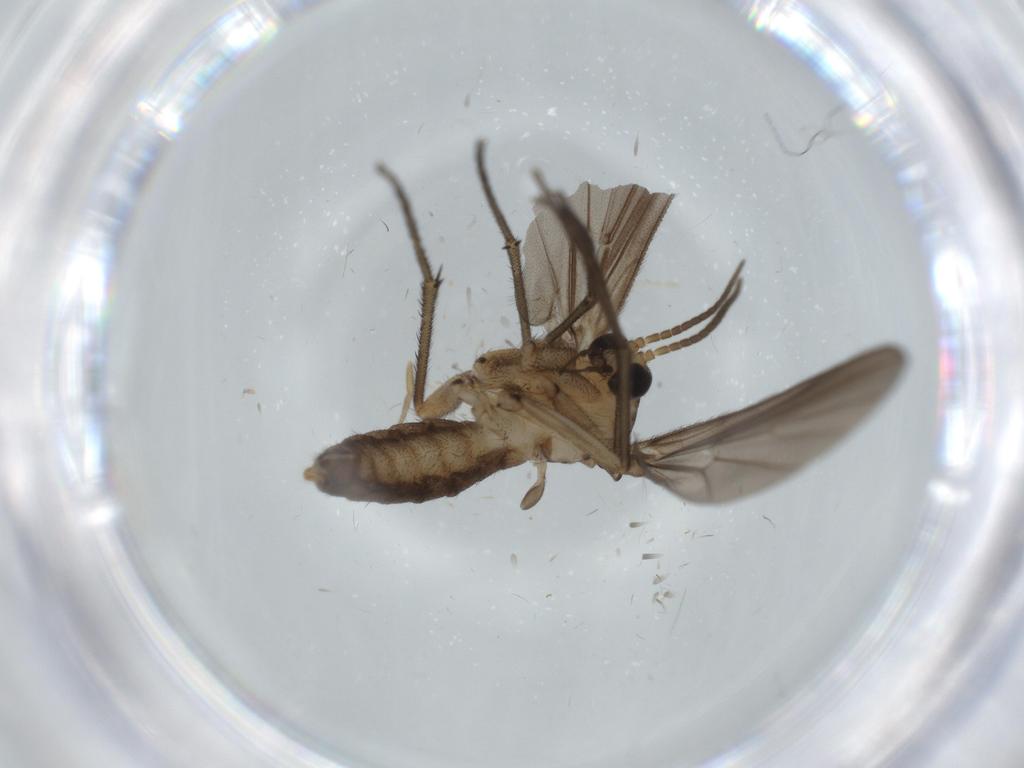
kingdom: Animalia
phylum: Arthropoda
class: Insecta
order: Diptera
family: Scathophagidae
